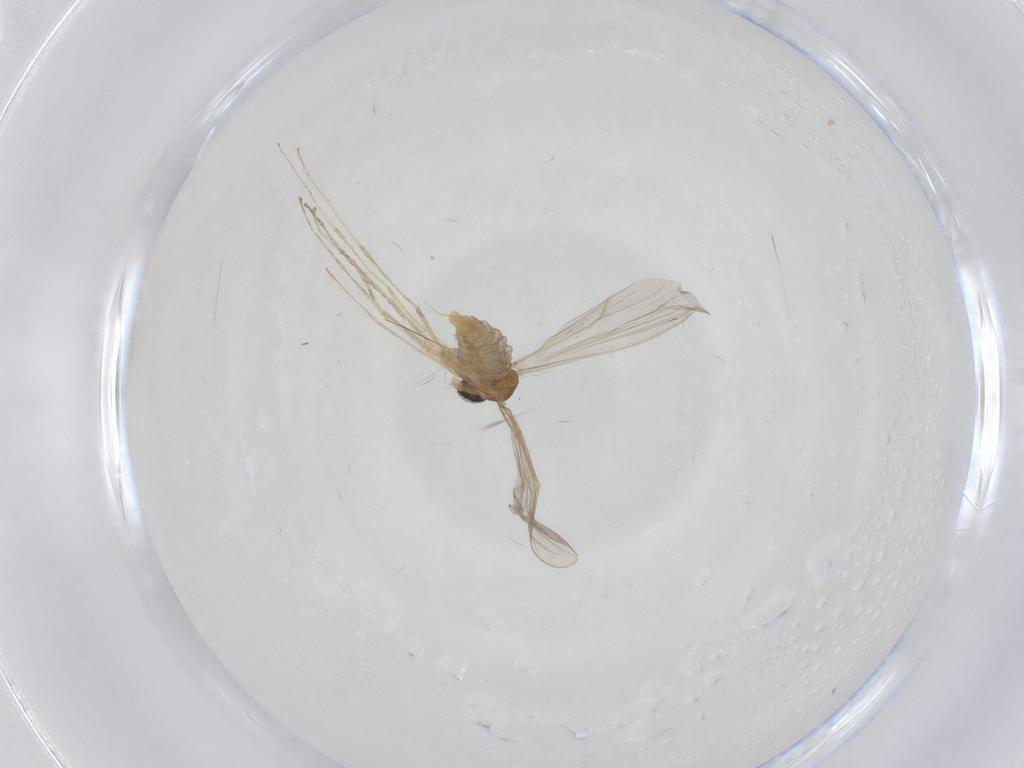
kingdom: Animalia
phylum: Arthropoda
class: Insecta
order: Diptera
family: Cecidomyiidae
